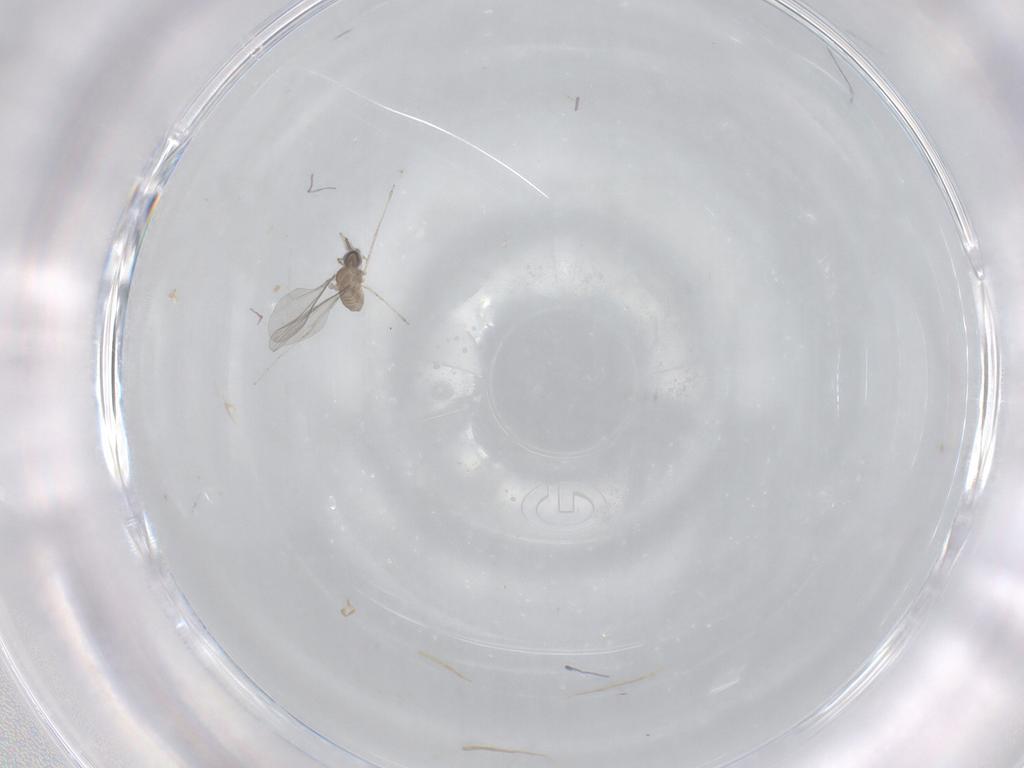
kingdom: Animalia
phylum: Arthropoda
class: Insecta
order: Diptera
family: Cecidomyiidae
